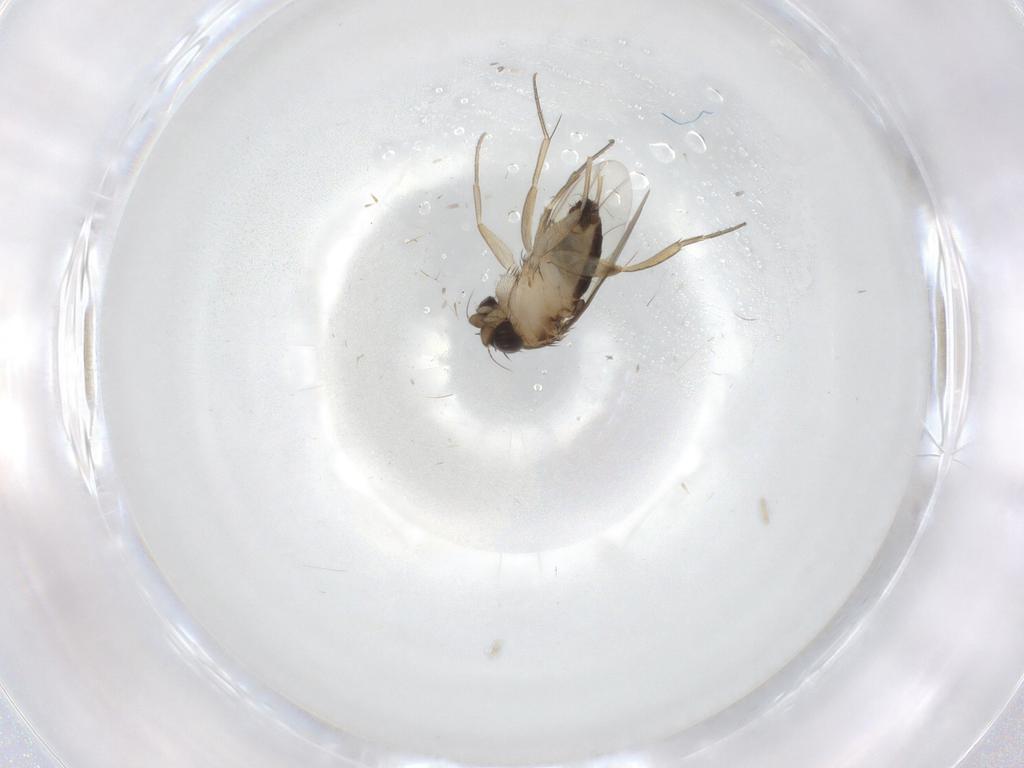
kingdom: Animalia
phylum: Arthropoda
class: Insecta
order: Diptera
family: Phoridae
